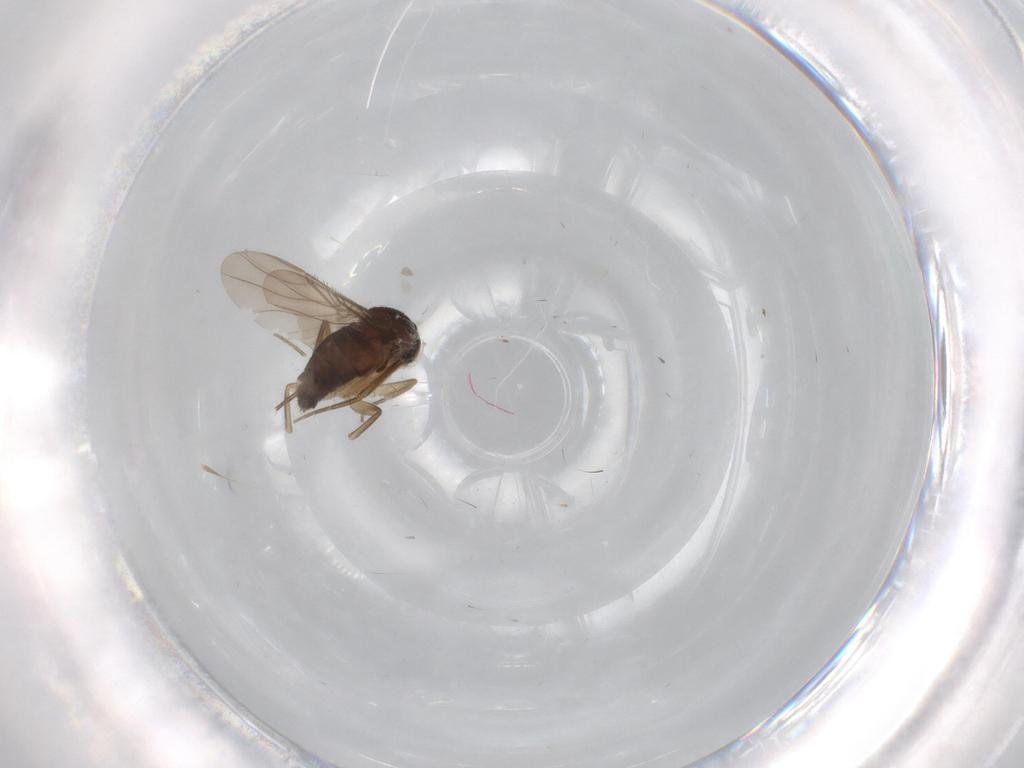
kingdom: Animalia
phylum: Arthropoda
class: Insecta
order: Diptera
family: Phoridae
